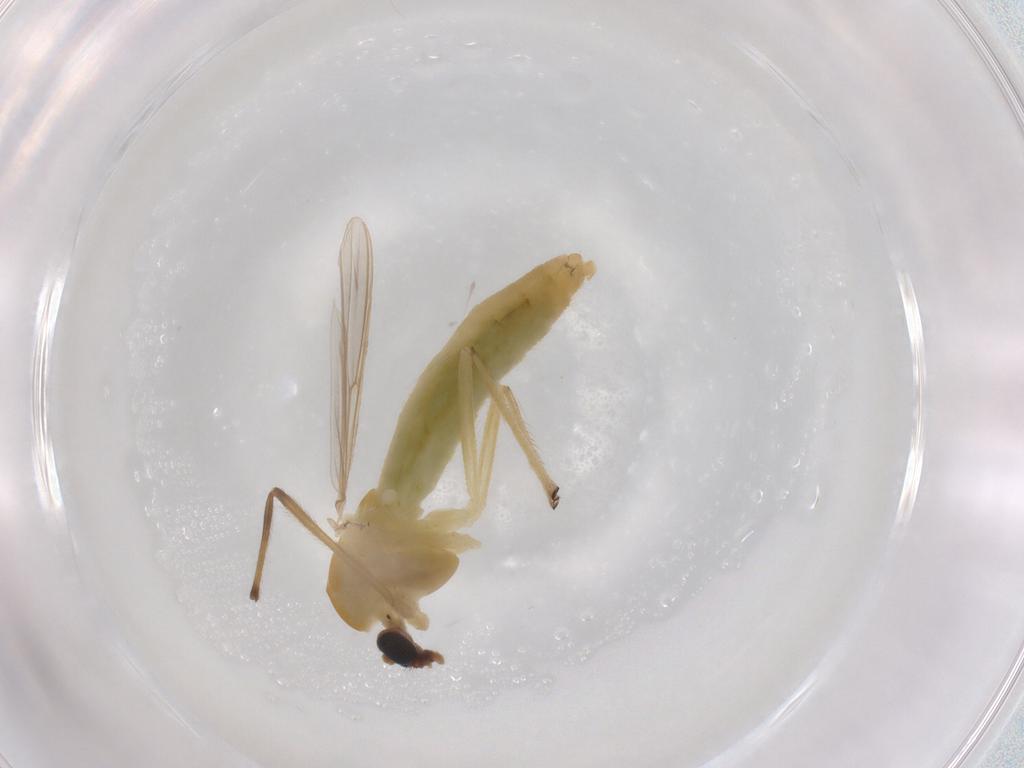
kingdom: Animalia
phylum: Arthropoda
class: Insecta
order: Diptera
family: Chironomidae
